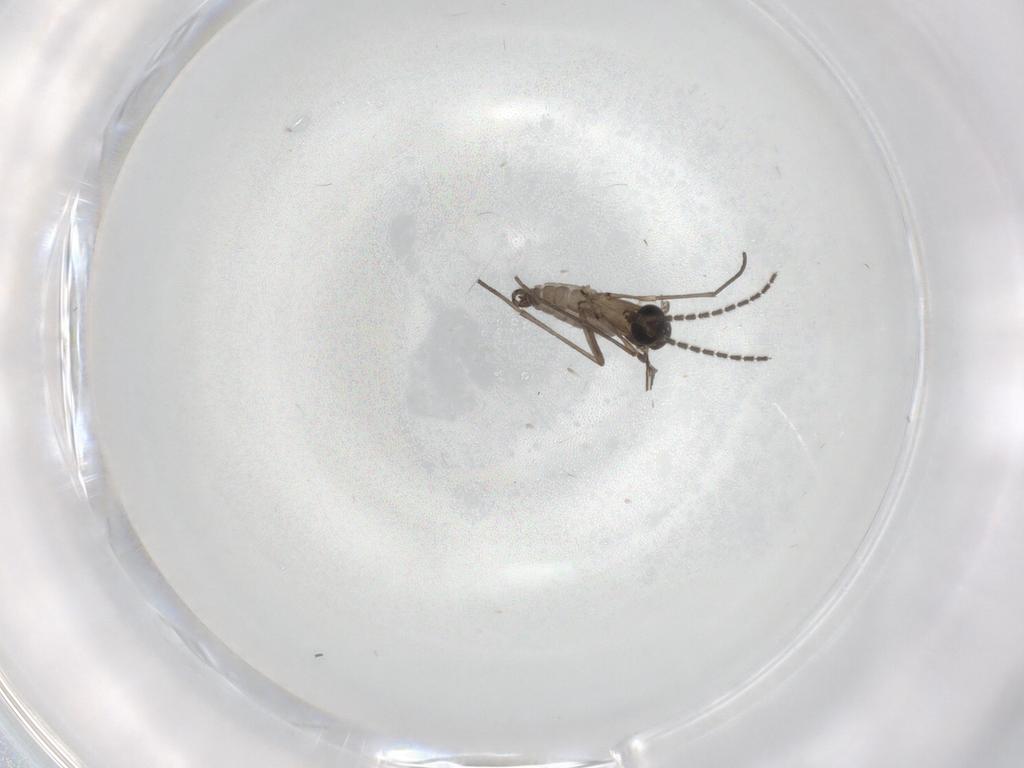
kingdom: Animalia
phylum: Arthropoda
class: Insecta
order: Diptera
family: Sciaridae
